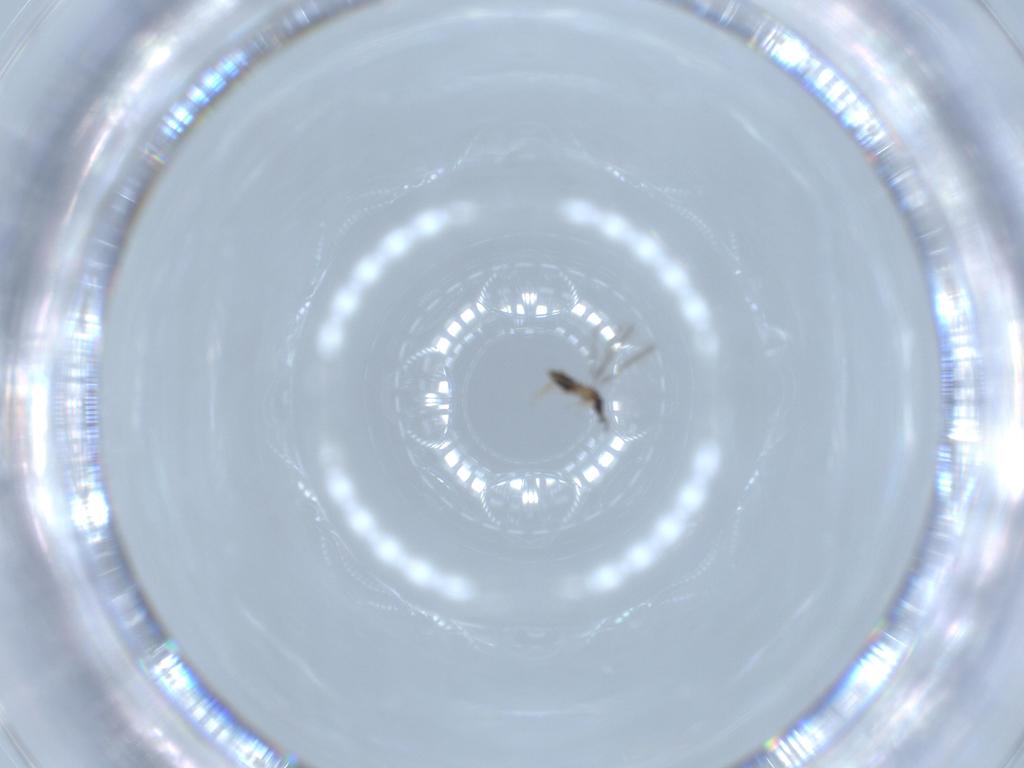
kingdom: Animalia
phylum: Arthropoda
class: Insecta
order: Hymenoptera
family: Mymaridae
